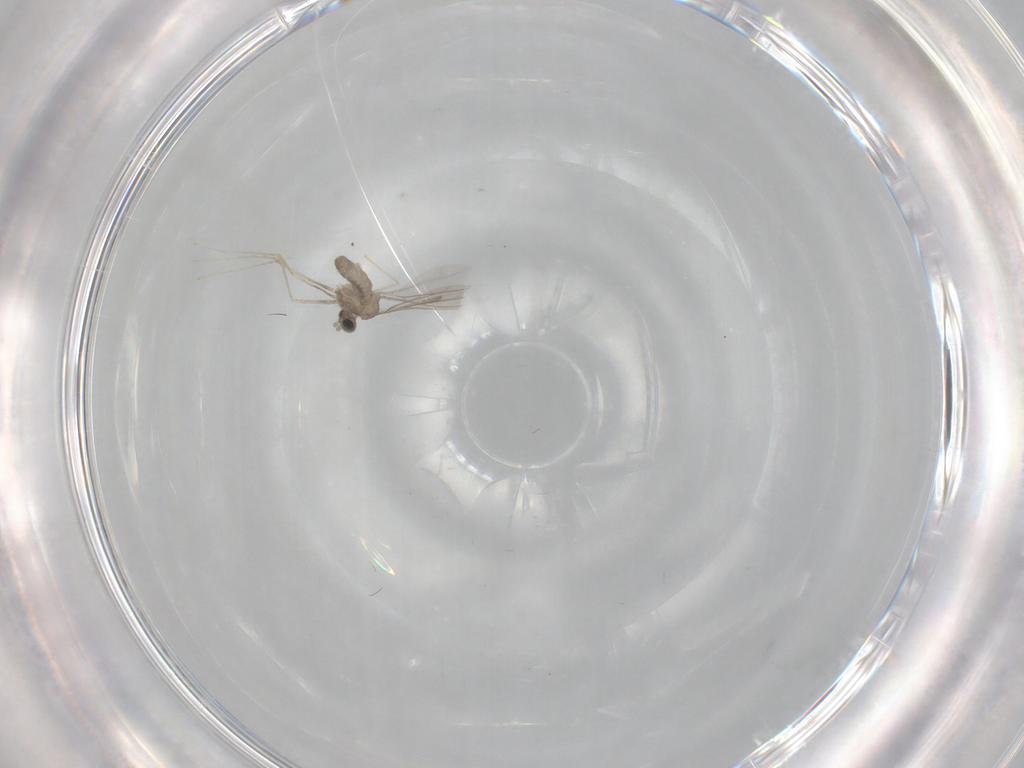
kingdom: Animalia
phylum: Arthropoda
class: Insecta
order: Diptera
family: Cecidomyiidae
